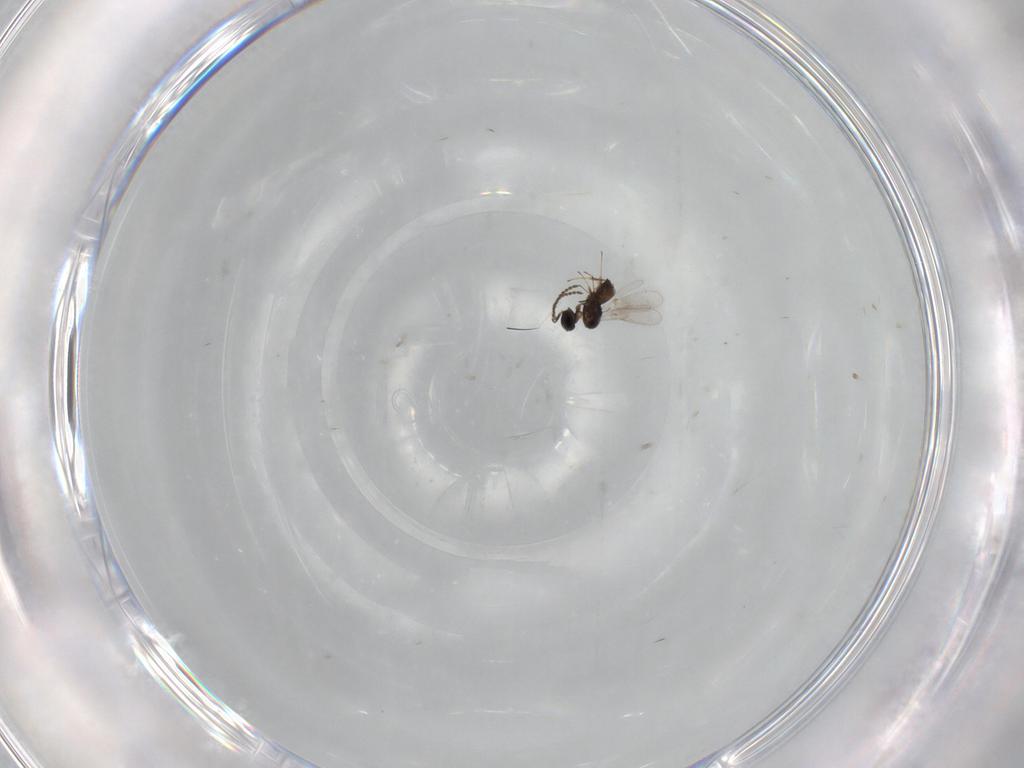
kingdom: Animalia
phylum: Arthropoda
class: Insecta
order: Hymenoptera
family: Scelionidae
